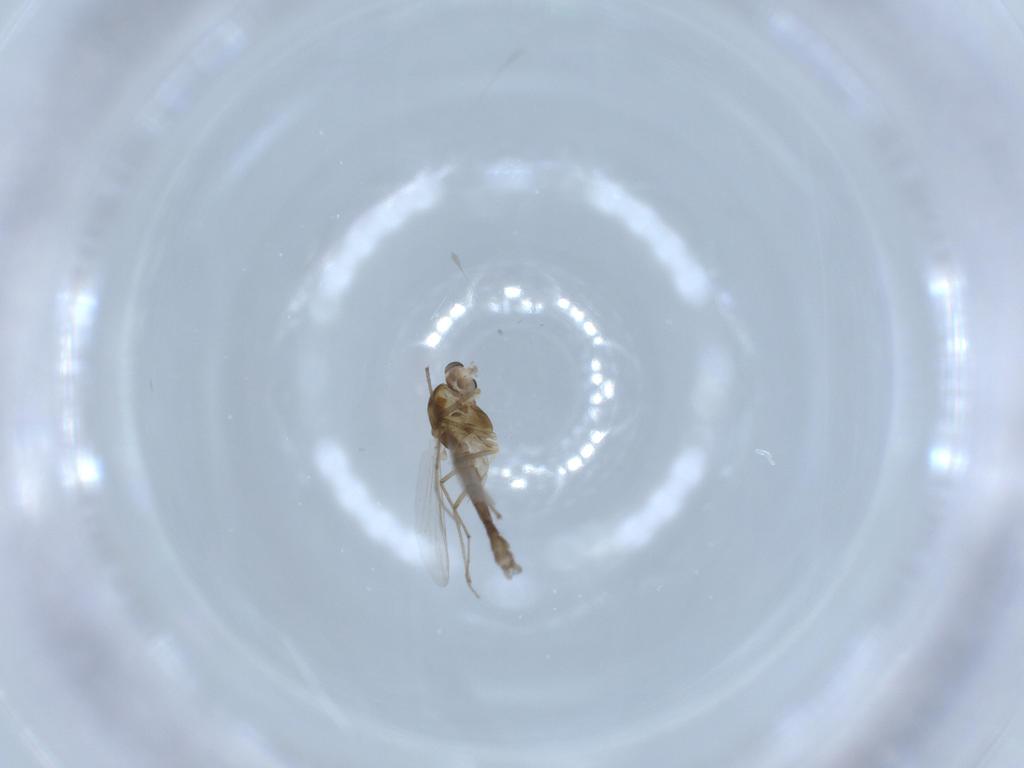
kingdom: Animalia
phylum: Arthropoda
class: Insecta
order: Diptera
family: Chironomidae
